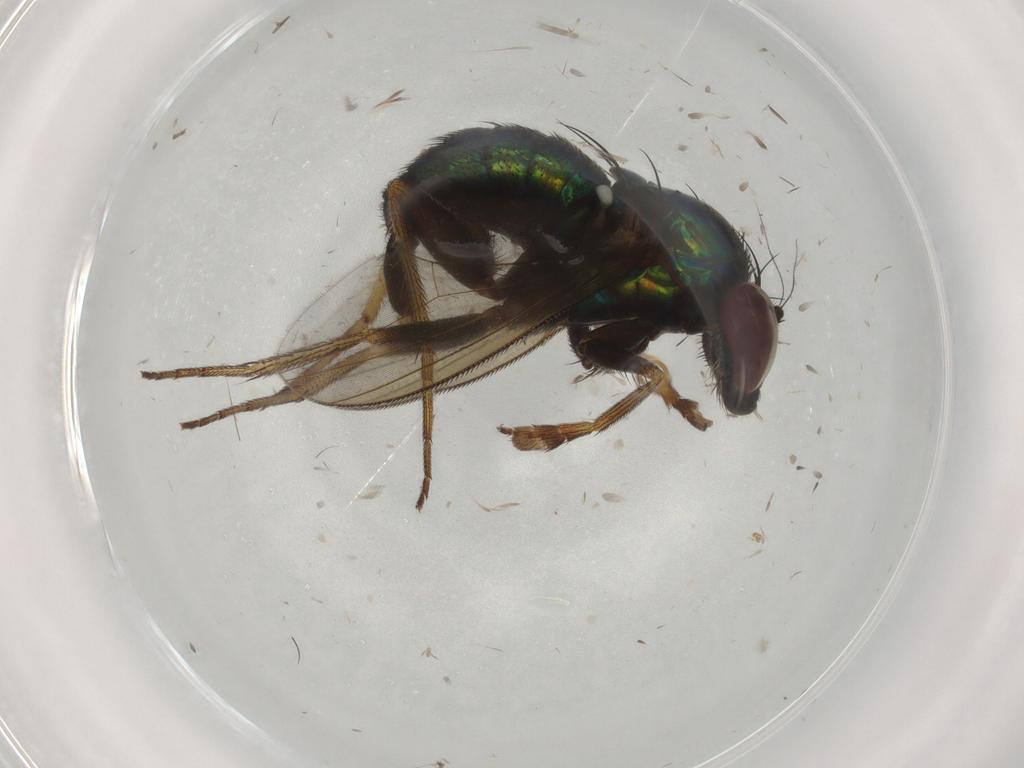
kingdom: Animalia
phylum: Arthropoda
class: Insecta
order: Diptera
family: Dolichopodidae
